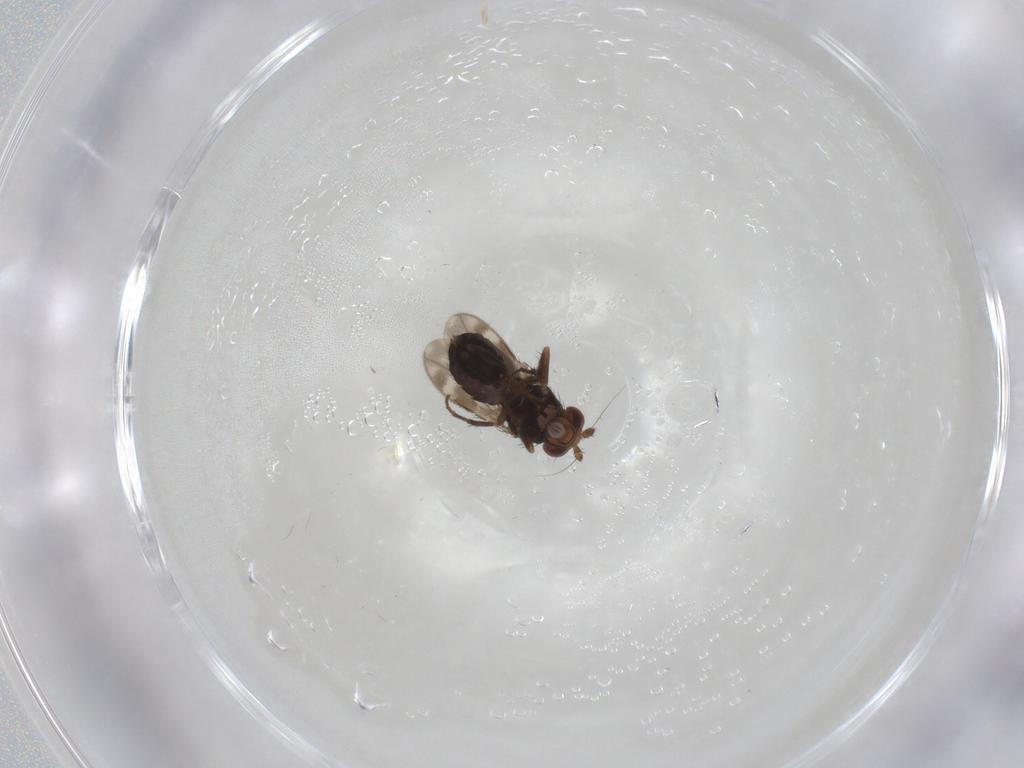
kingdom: Animalia
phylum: Arthropoda
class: Insecta
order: Diptera
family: Sphaeroceridae
